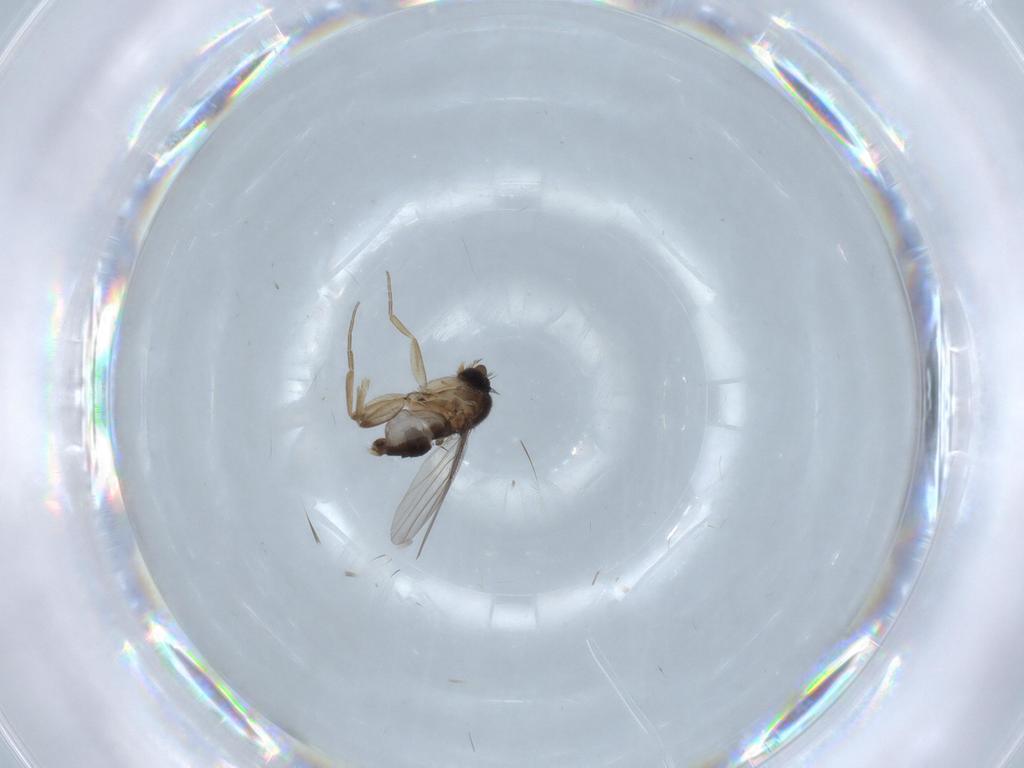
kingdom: Animalia
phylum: Arthropoda
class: Insecta
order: Diptera
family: Phoridae
